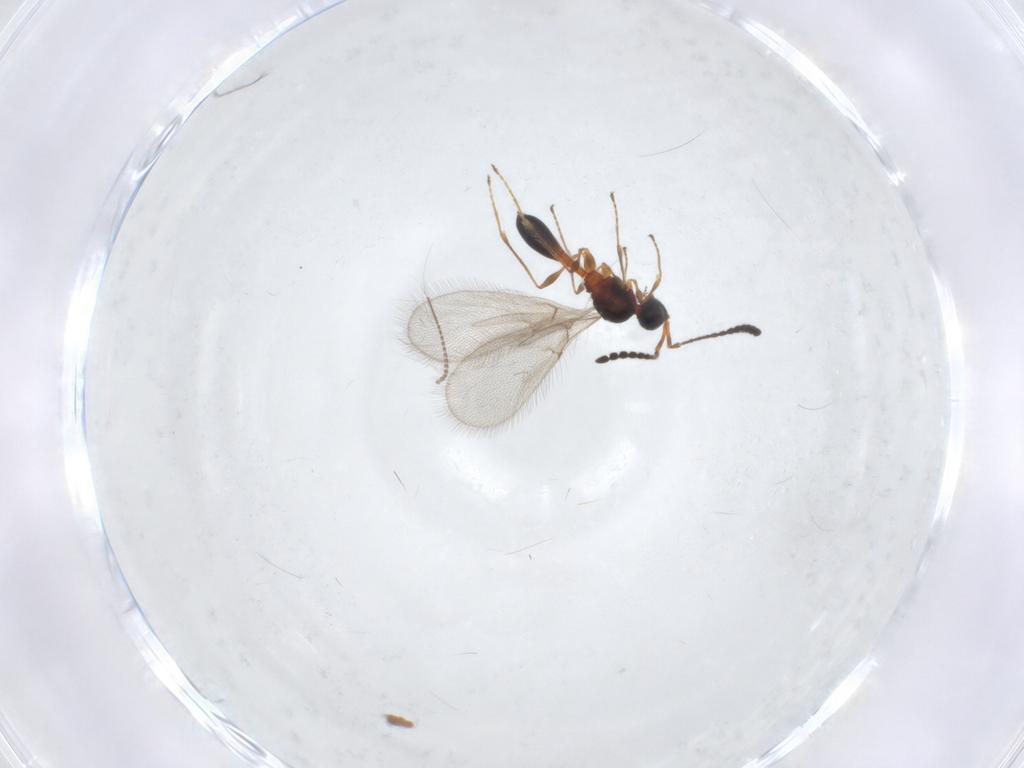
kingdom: Animalia
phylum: Arthropoda
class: Insecta
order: Hymenoptera
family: Diapriidae
